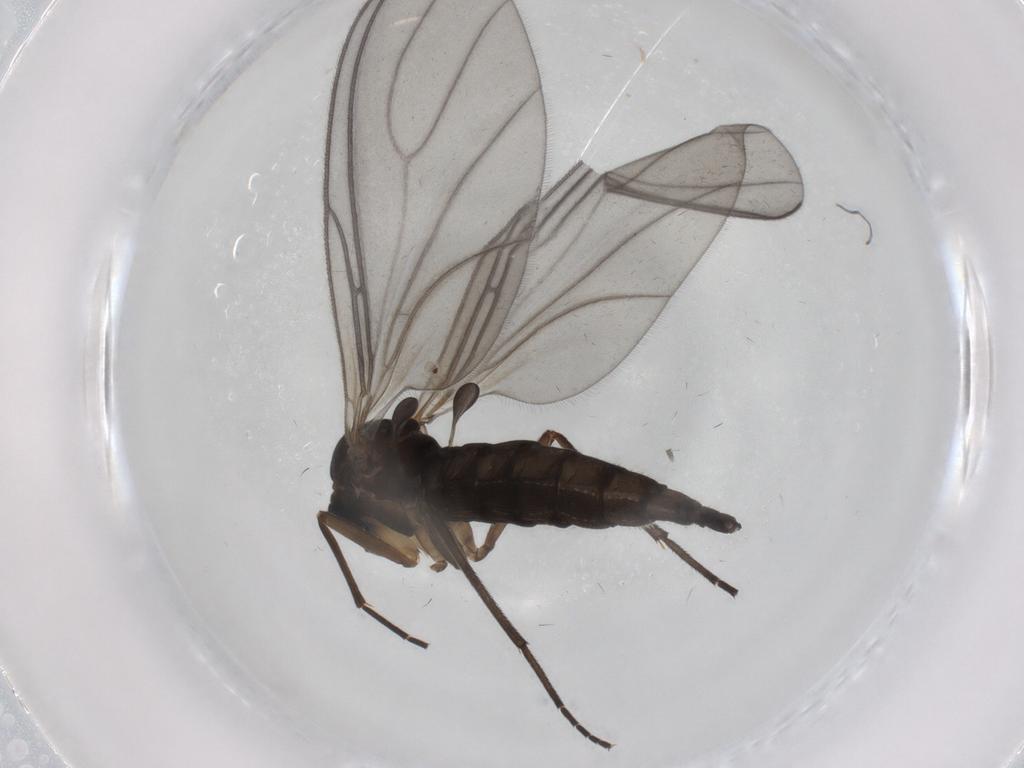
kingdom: Animalia
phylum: Arthropoda
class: Insecta
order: Diptera
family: Sciaridae
